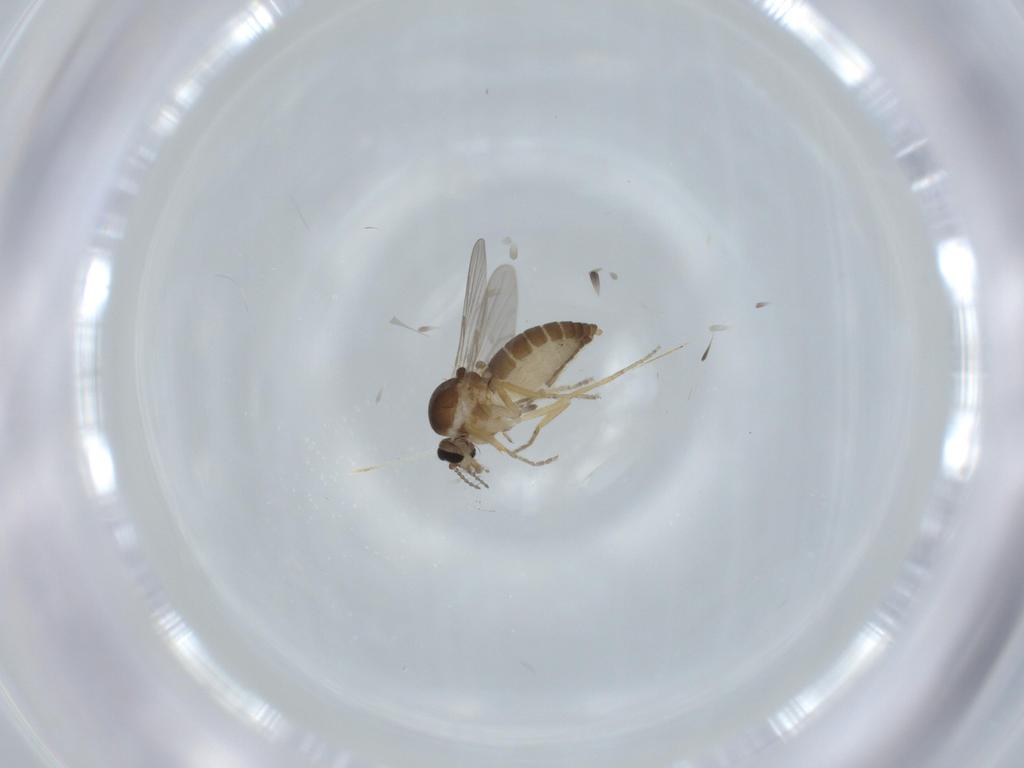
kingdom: Animalia
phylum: Arthropoda
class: Insecta
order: Diptera
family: Ceratopogonidae
